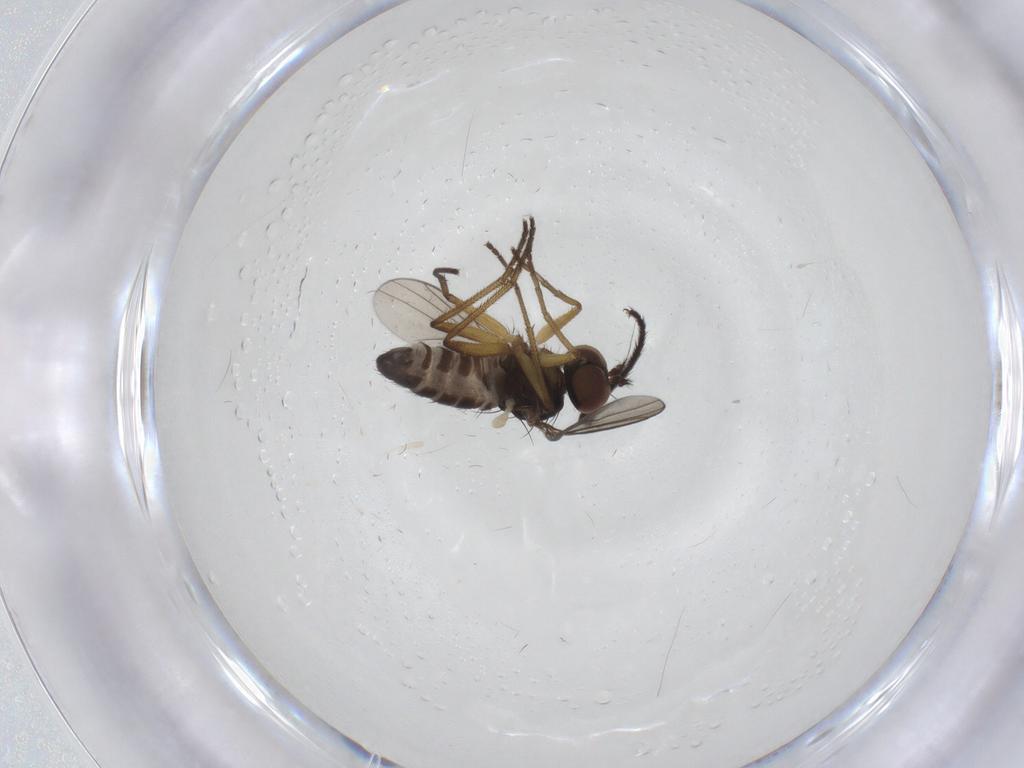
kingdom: Animalia
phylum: Arthropoda
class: Insecta
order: Diptera
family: Dolichopodidae
